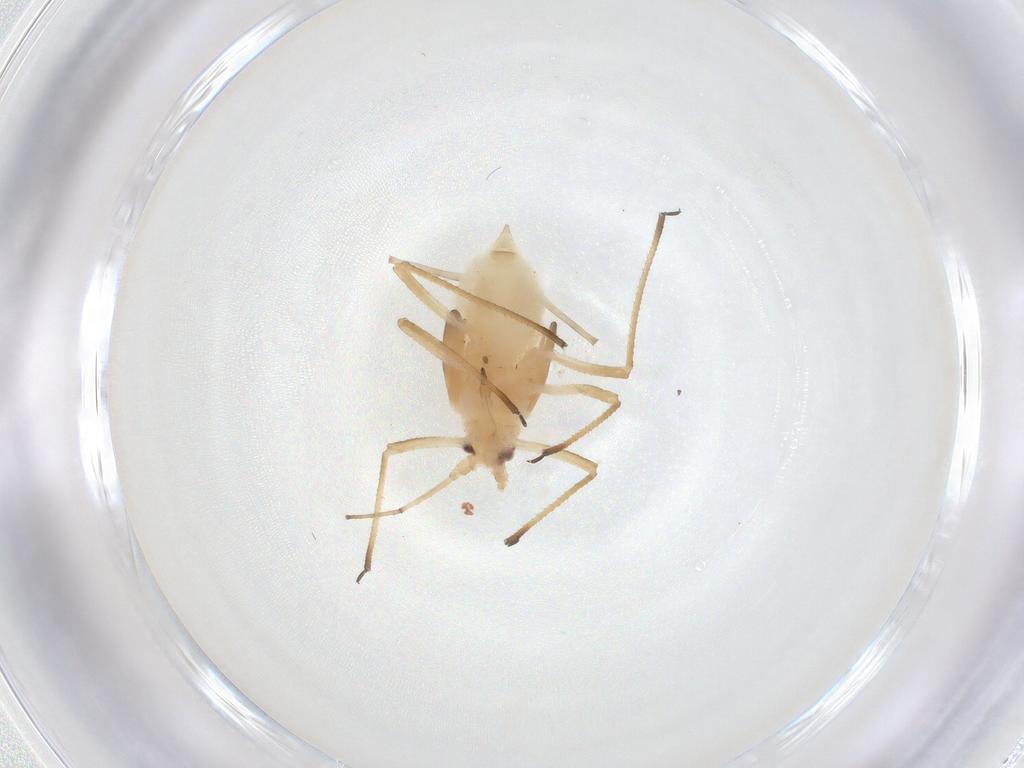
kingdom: Animalia
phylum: Arthropoda
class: Insecta
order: Hemiptera
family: Aphididae
